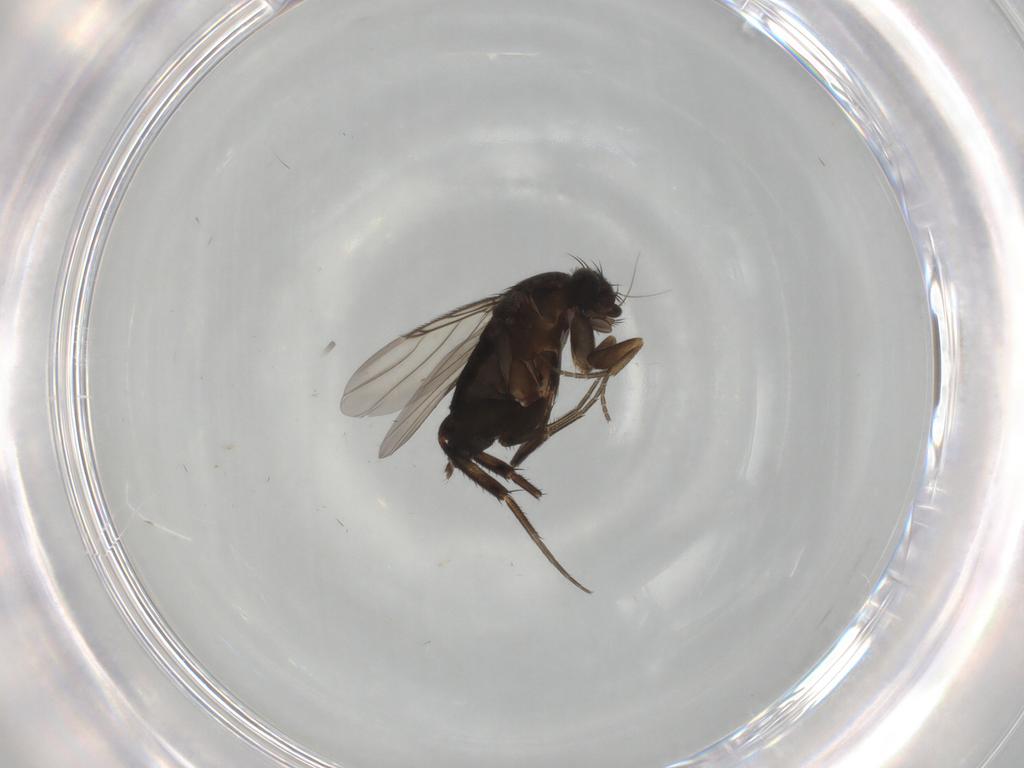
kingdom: Animalia
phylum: Arthropoda
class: Insecta
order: Diptera
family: Phoridae
